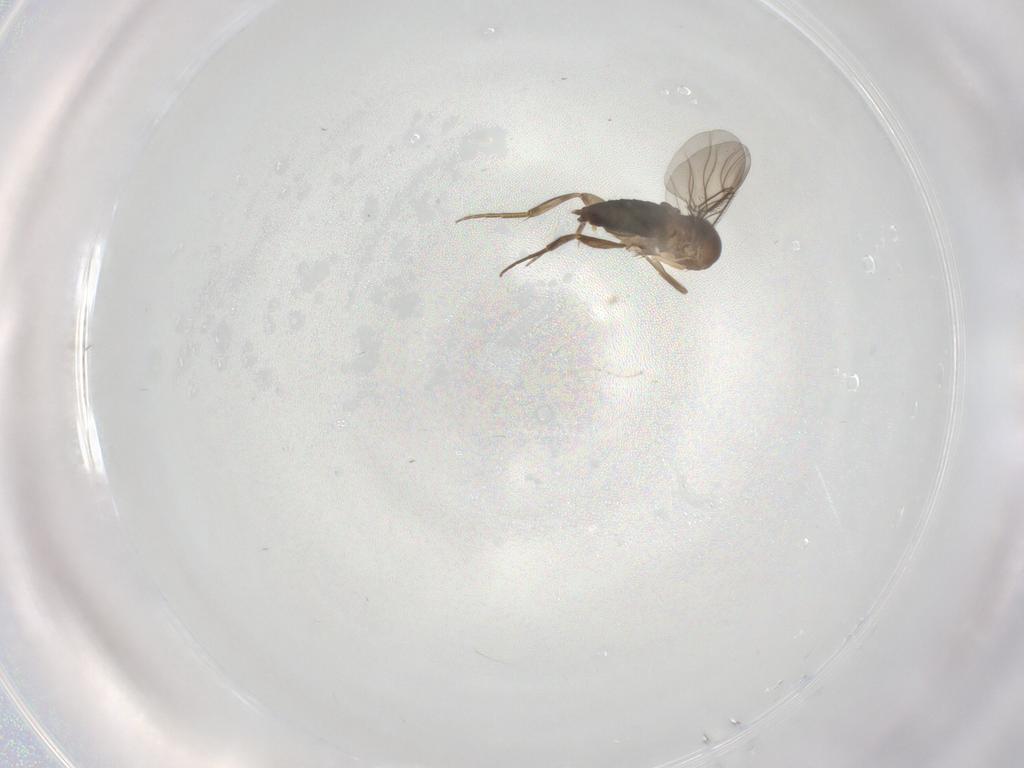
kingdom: Animalia
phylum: Arthropoda
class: Insecta
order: Diptera
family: Phoridae
